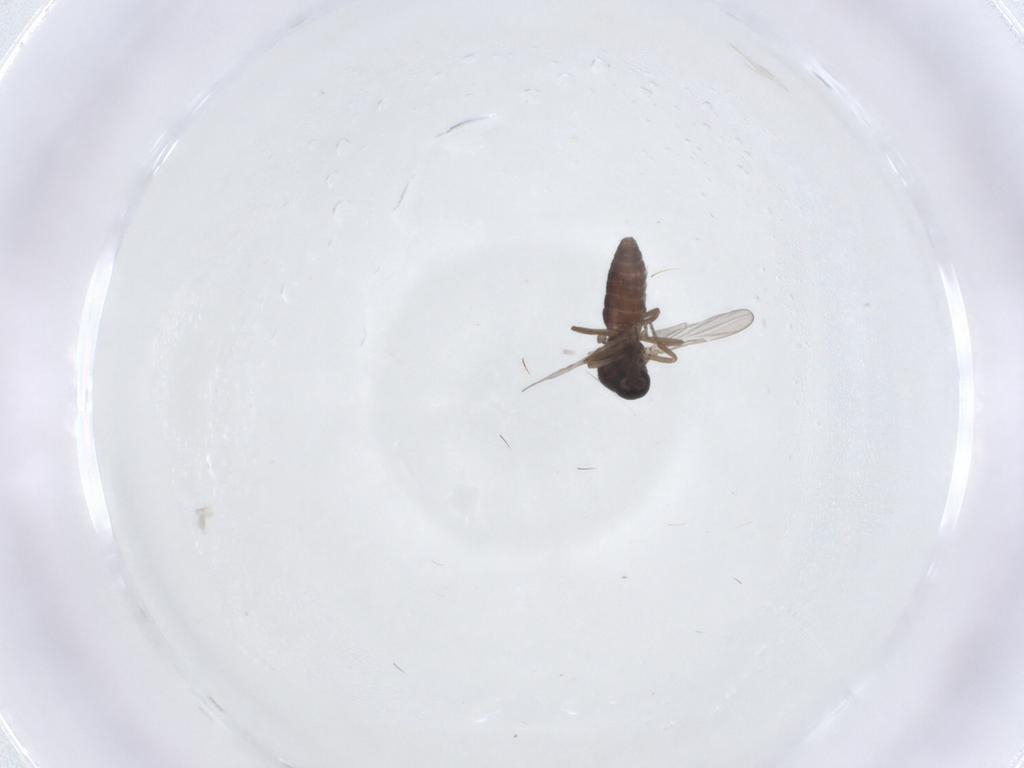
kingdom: Animalia
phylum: Arthropoda
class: Insecta
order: Diptera
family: Ceratopogonidae
